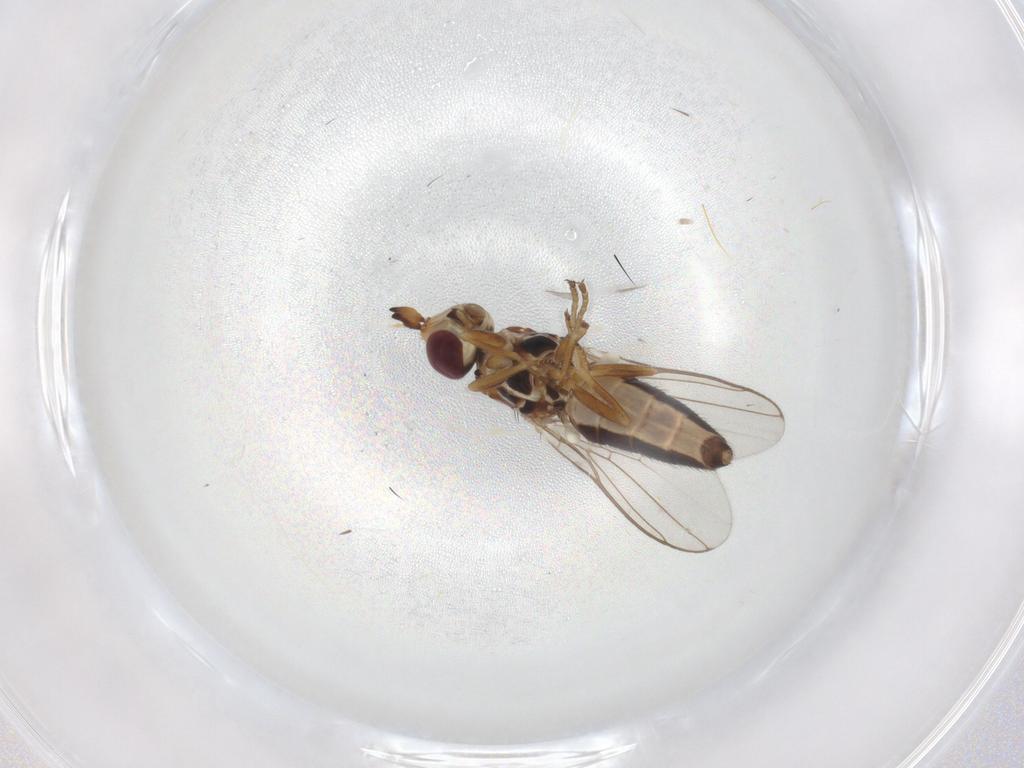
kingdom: Animalia
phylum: Arthropoda
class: Insecta
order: Diptera
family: Chloropidae
